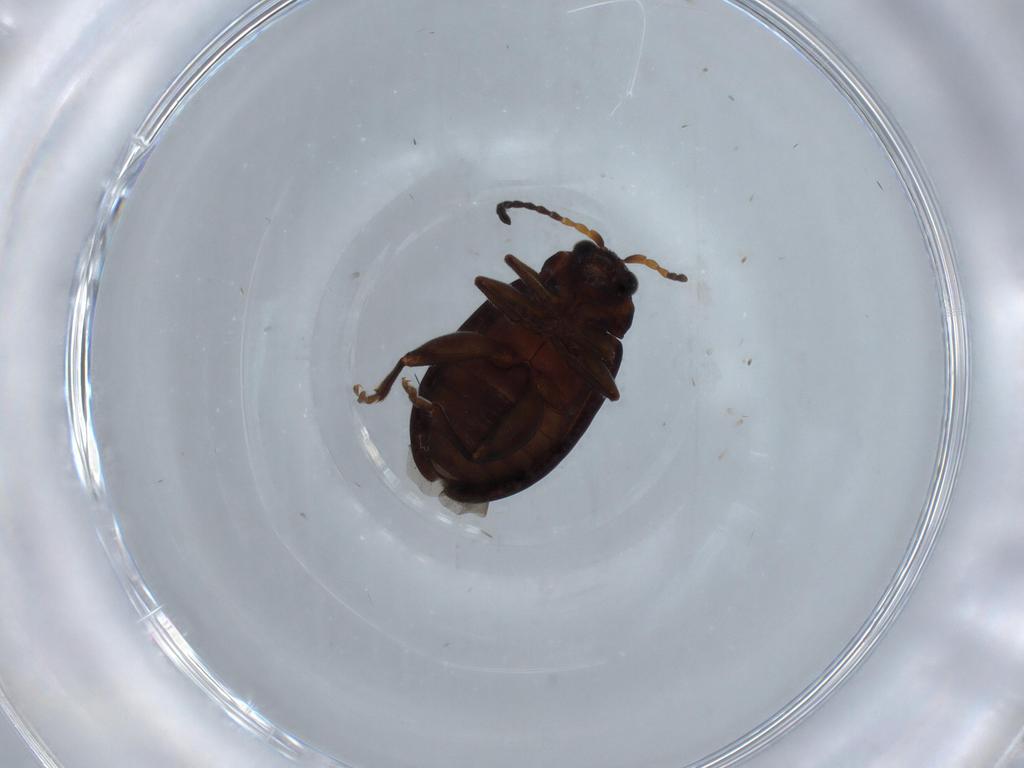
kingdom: Animalia
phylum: Arthropoda
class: Insecta
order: Coleoptera
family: Chrysomelidae
